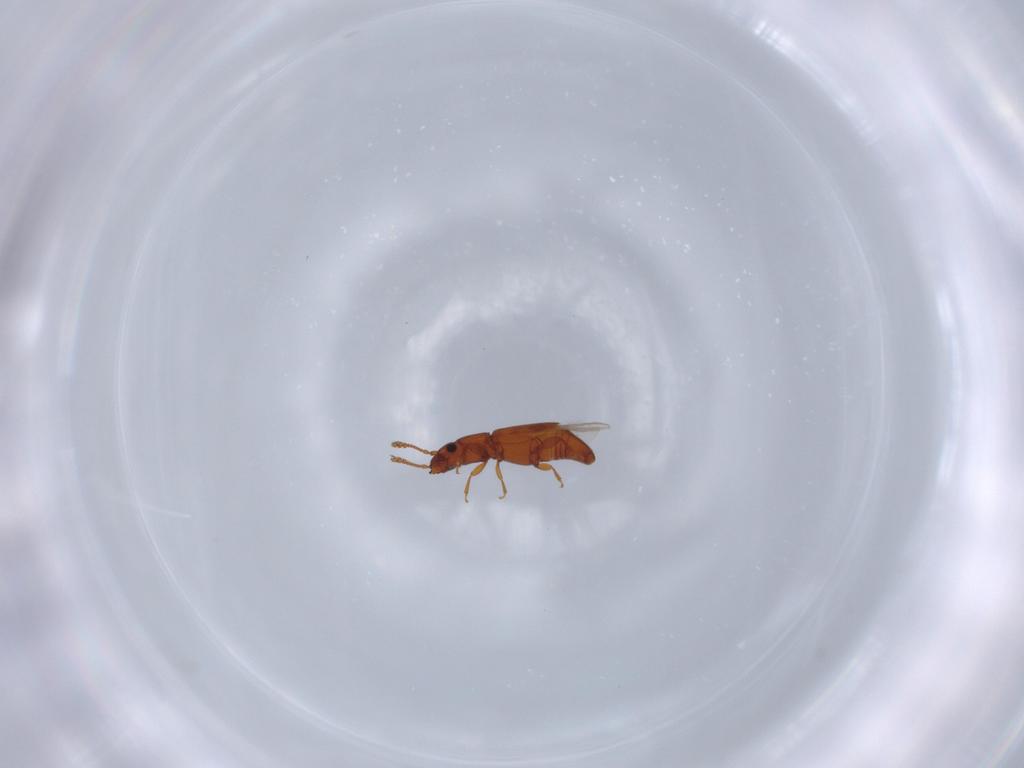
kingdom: Animalia
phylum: Arthropoda
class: Insecta
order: Coleoptera
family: Smicripidae
